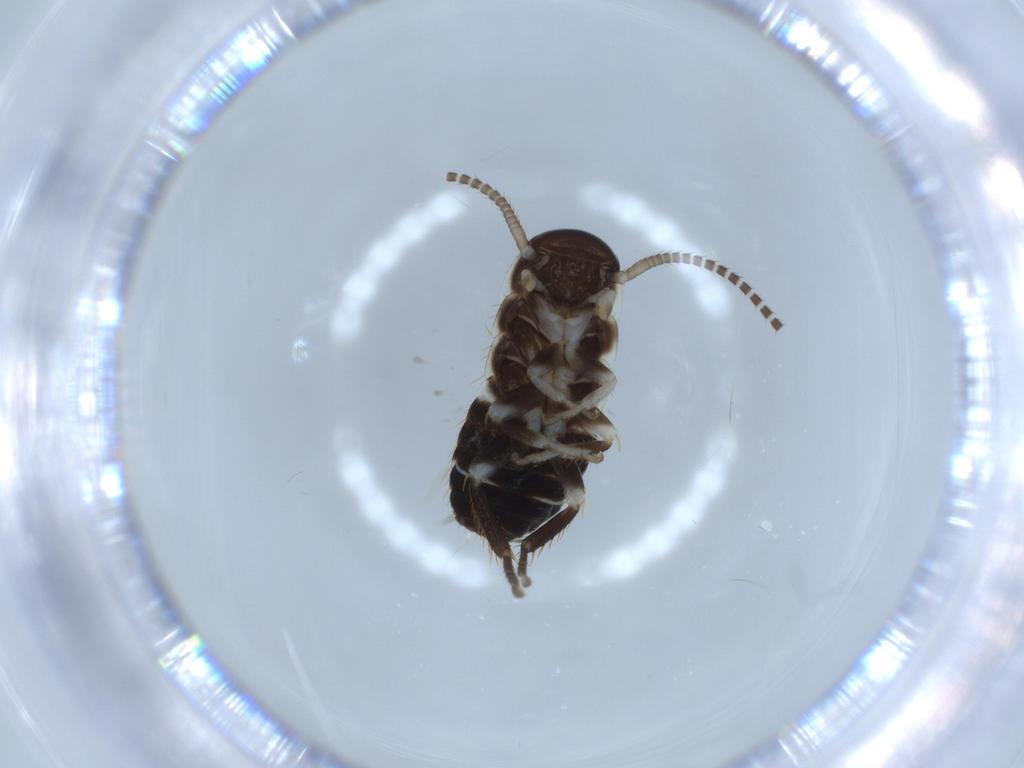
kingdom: Animalia
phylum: Arthropoda
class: Insecta
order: Blattodea
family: Ectobiidae
